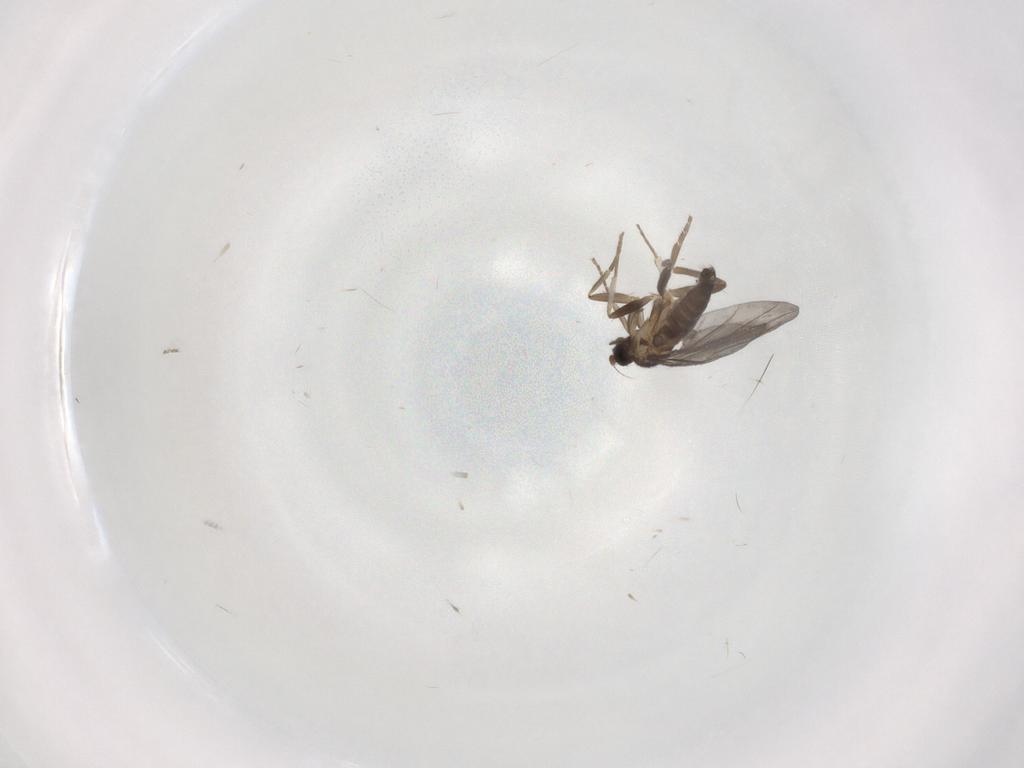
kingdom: Animalia
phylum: Arthropoda
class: Insecta
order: Diptera
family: Phoridae
